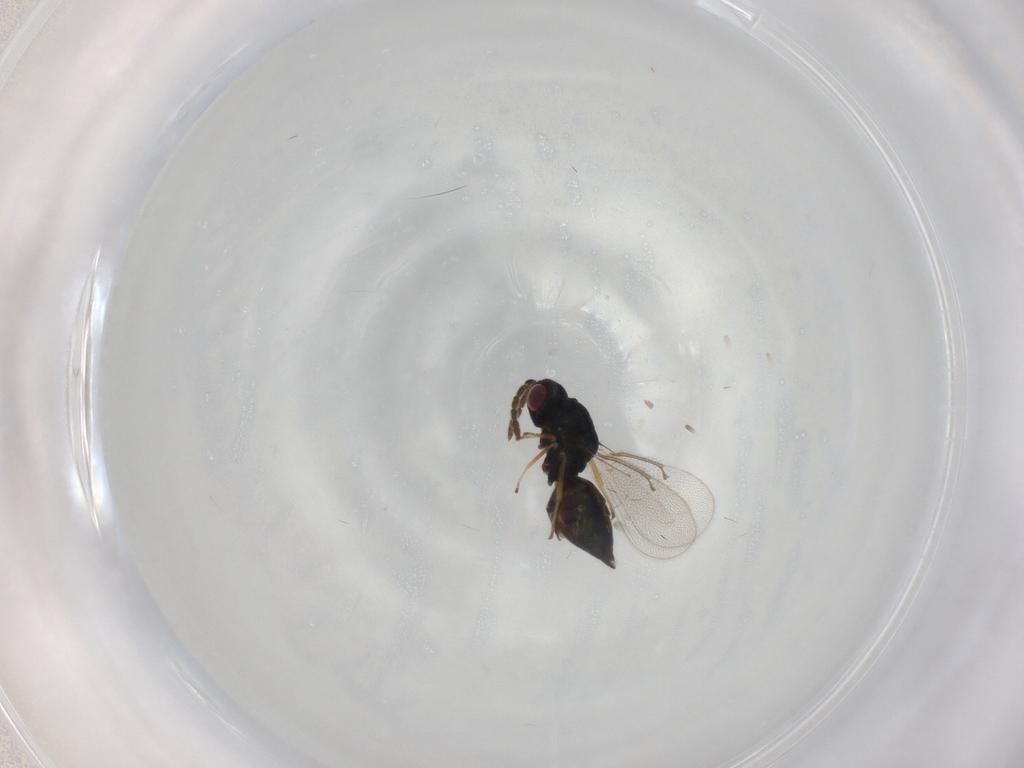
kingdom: Animalia
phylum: Arthropoda
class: Insecta
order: Hymenoptera
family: Eulophidae
